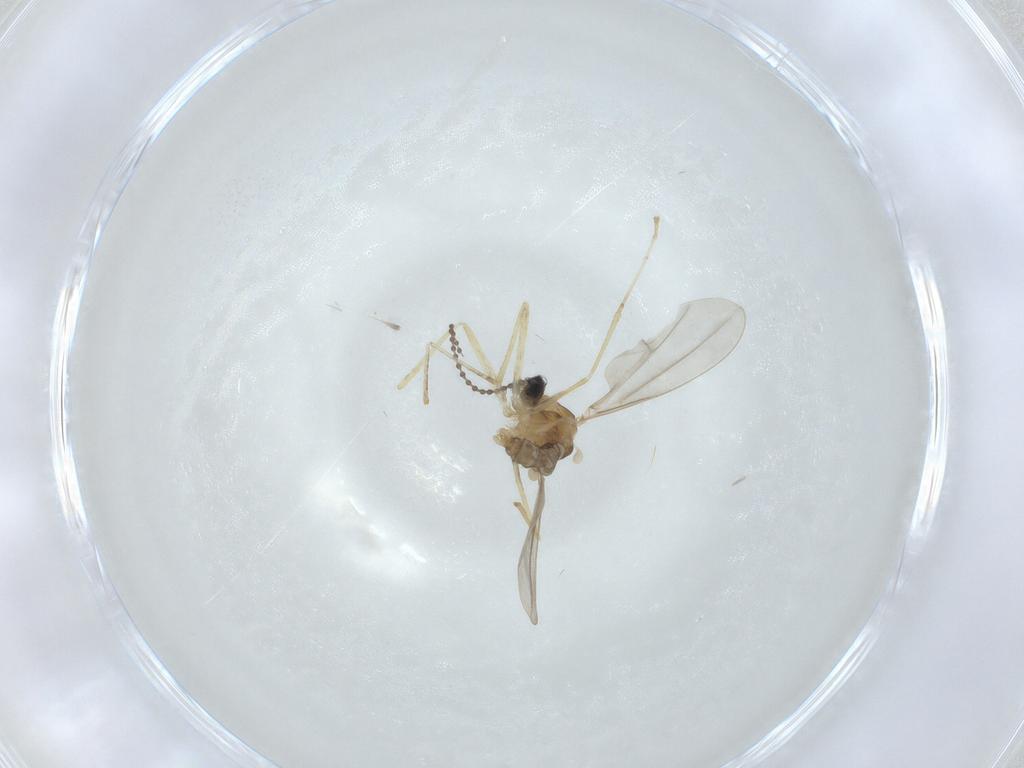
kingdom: Animalia
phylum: Arthropoda
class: Insecta
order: Diptera
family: Cecidomyiidae
